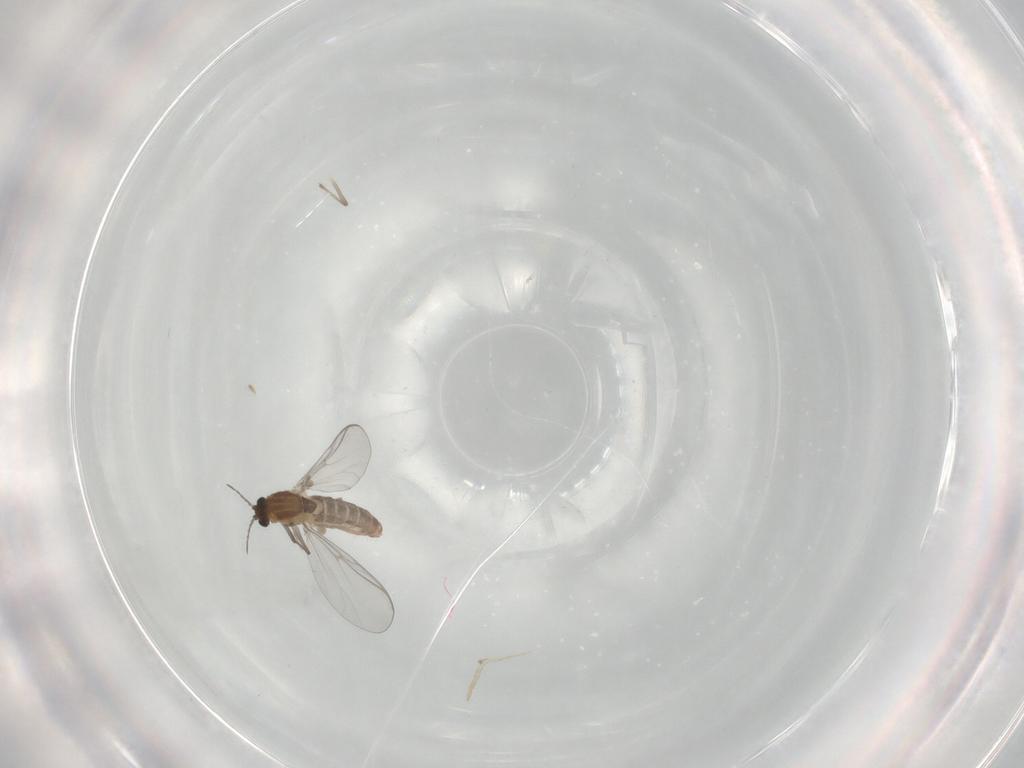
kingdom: Animalia
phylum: Arthropoda
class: Insecta
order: Diptera
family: Chironomidae
